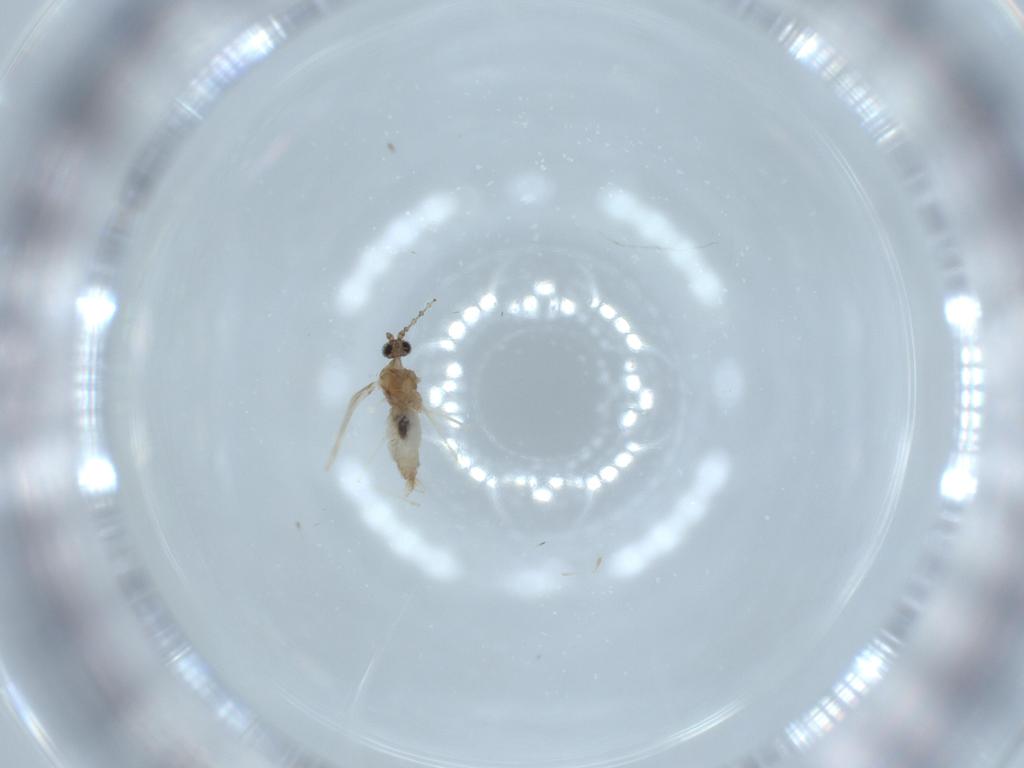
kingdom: Animalia
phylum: Arthropoda
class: Insecta
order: Diptera
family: Cecidomyiidae
